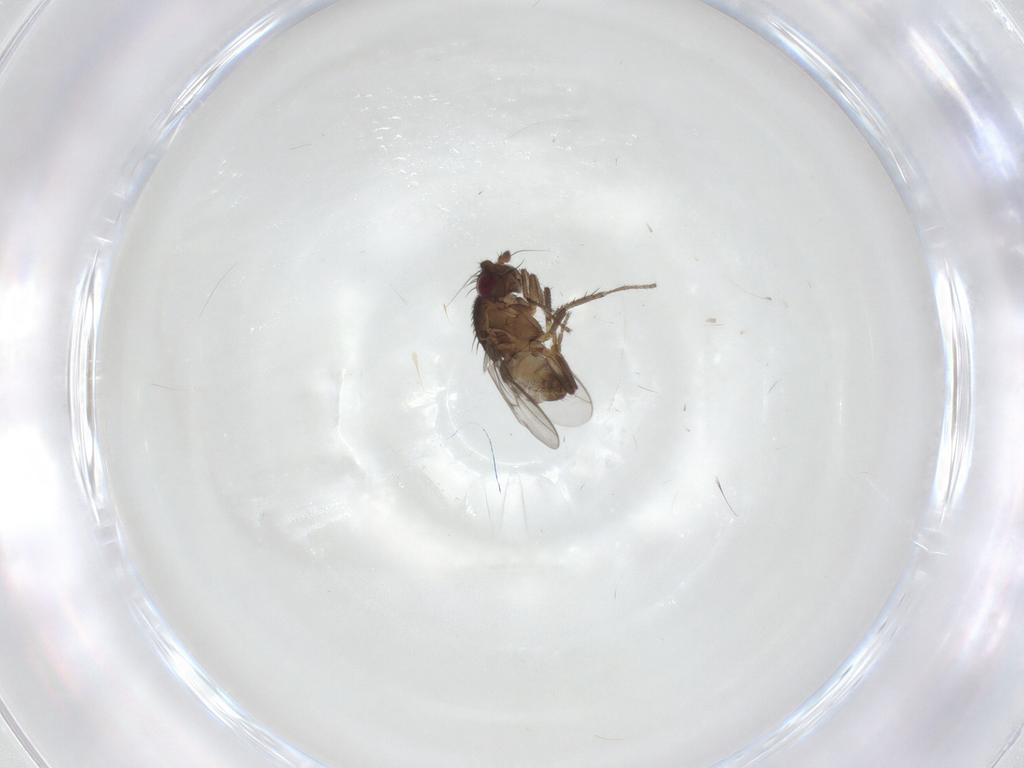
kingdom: Animalia
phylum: Arthropoda
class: Insecta
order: Diptera
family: Sphaeroceridae
